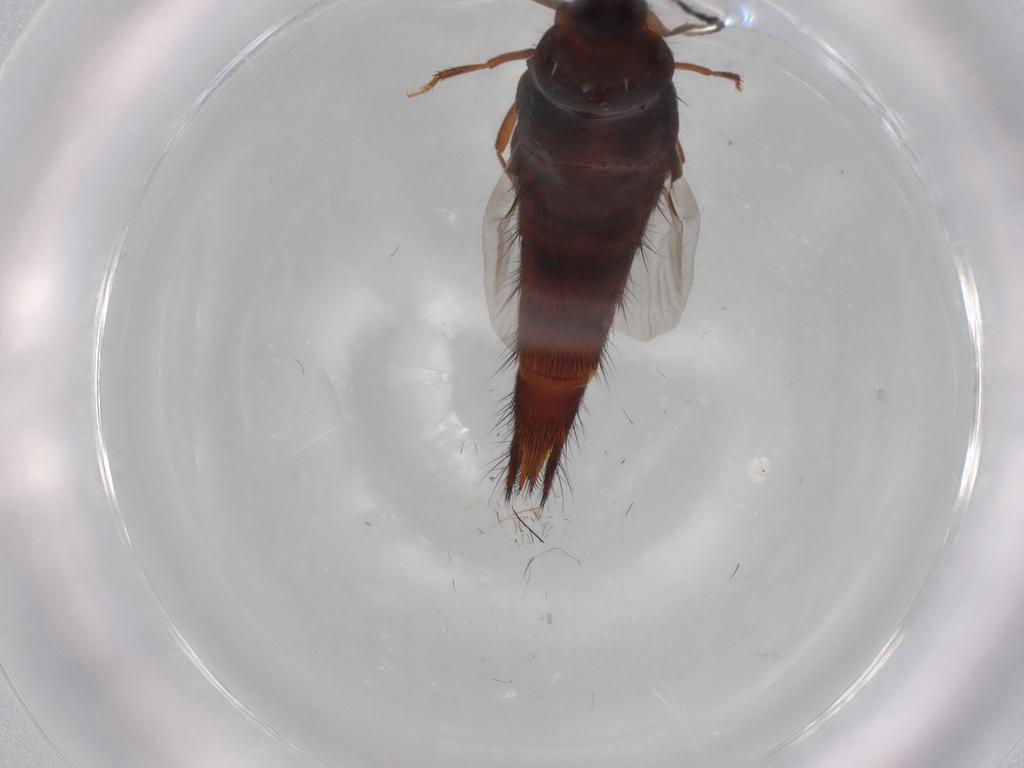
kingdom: Animalia
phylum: Arthropoda
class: Insecta
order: Coleoptera
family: Staphylinidae
